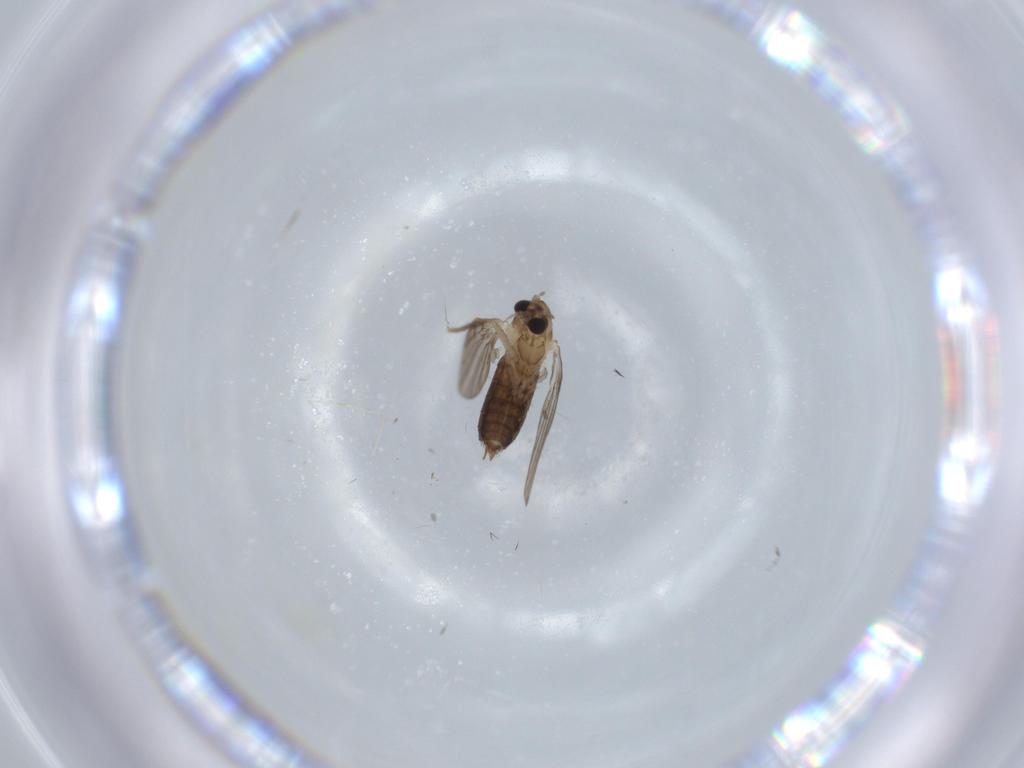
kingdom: Animalia
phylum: Arthropoda
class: Insecta
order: Diptera
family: Psychodidae
